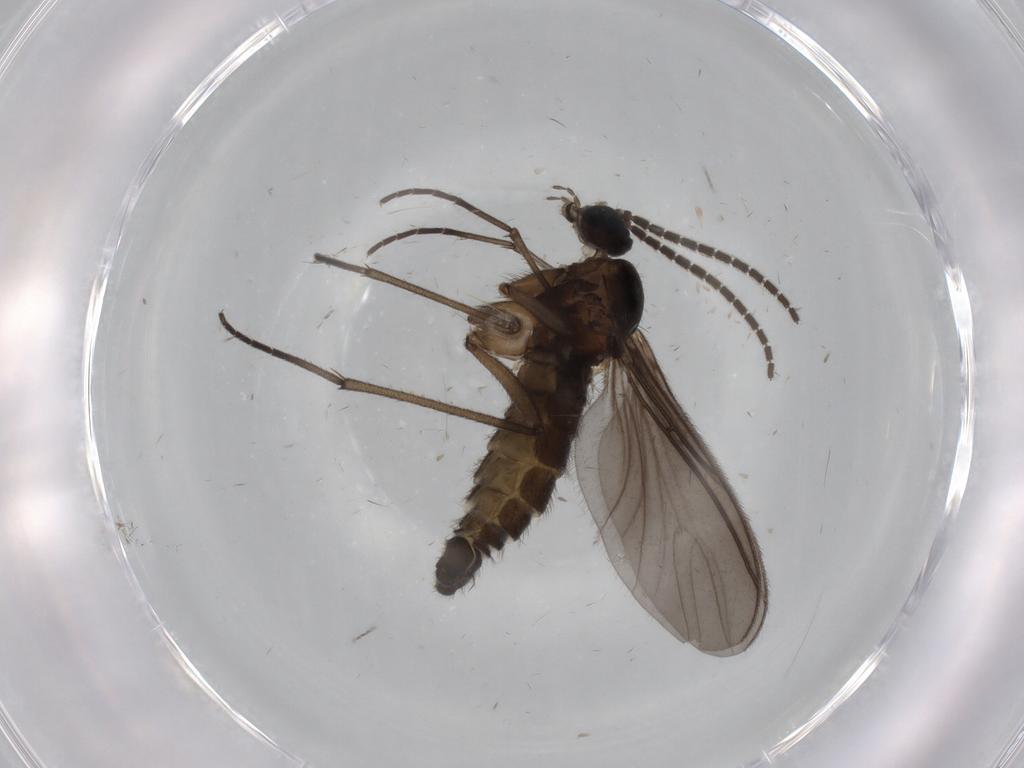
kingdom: Animalia
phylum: Arthropoda
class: Insecta
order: Diptera
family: Sciaridae
